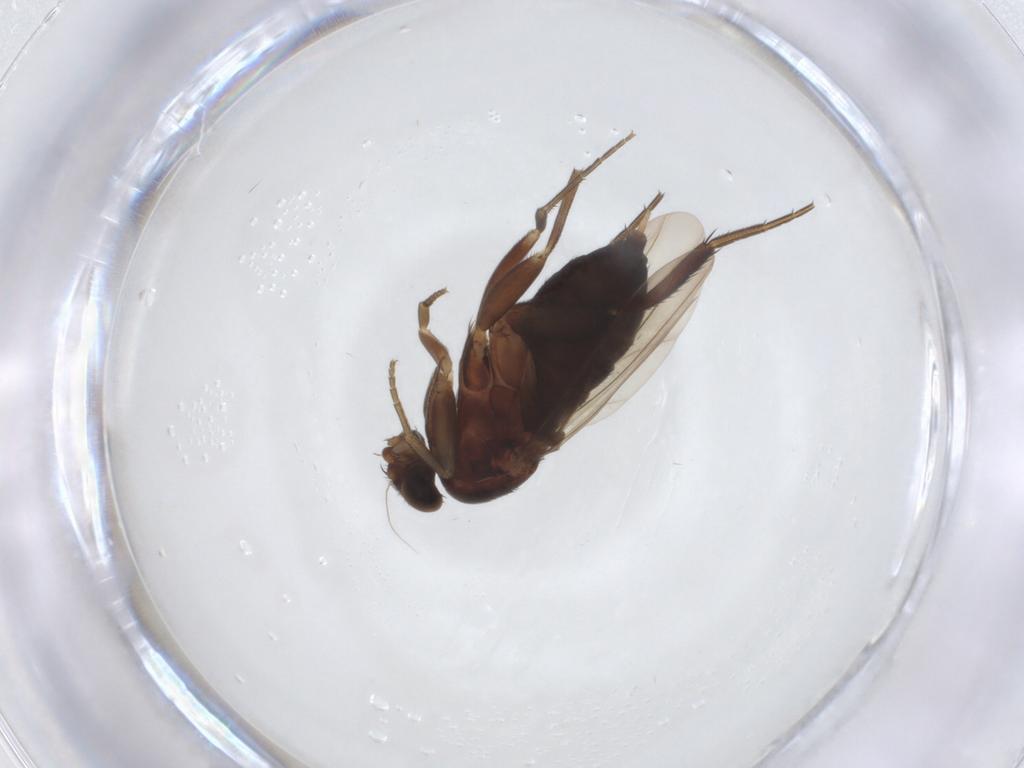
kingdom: Animalia
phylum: Arthropoda
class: Insecta
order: Diptera
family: Phoridae
